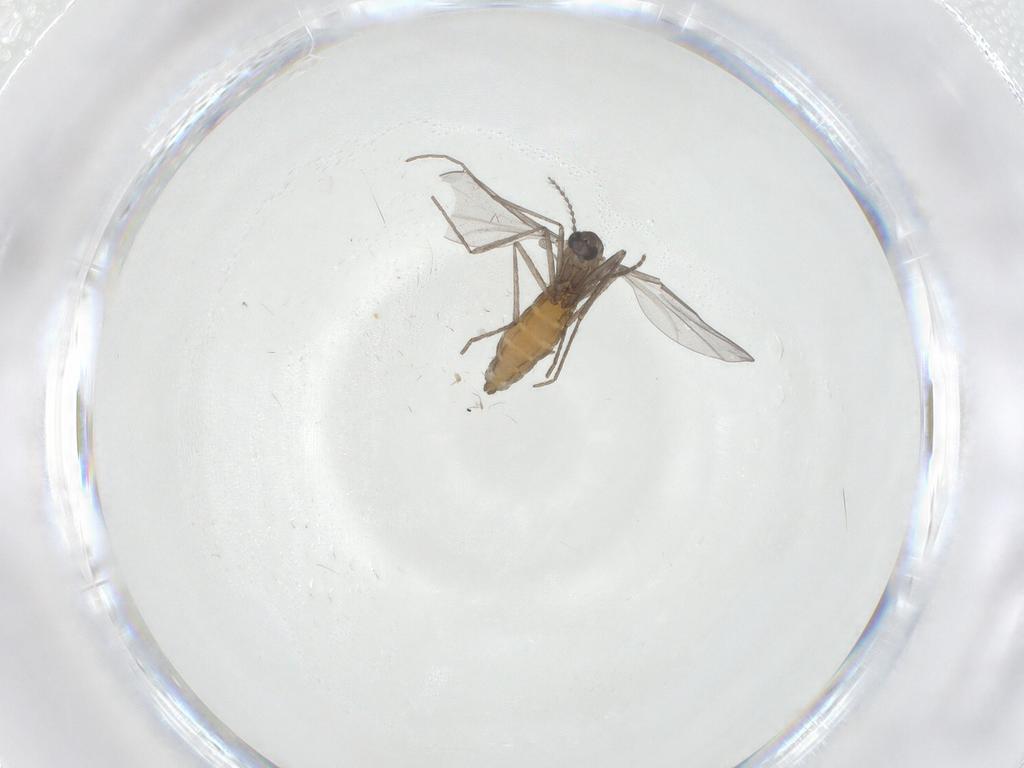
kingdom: Animalia
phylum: Arthropoda
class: Insecta
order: Diptera
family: Cecidomyiidae
